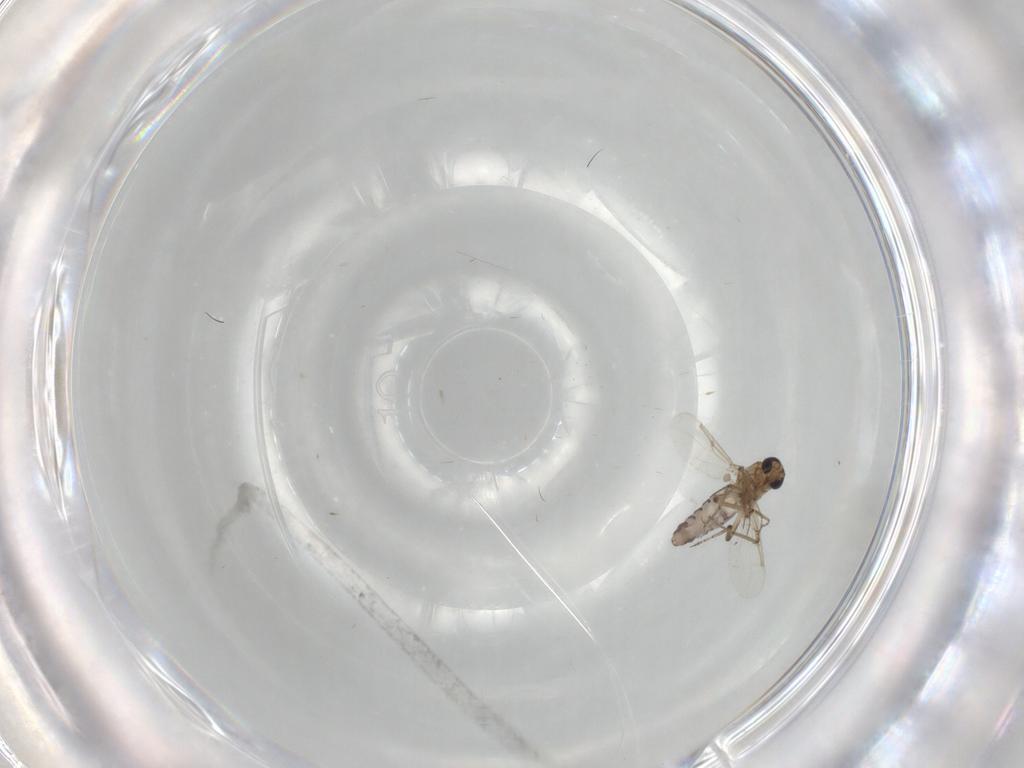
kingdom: Animalia
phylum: Arthropoda
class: Insecta
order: Diptera
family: Ceratopogonidae
